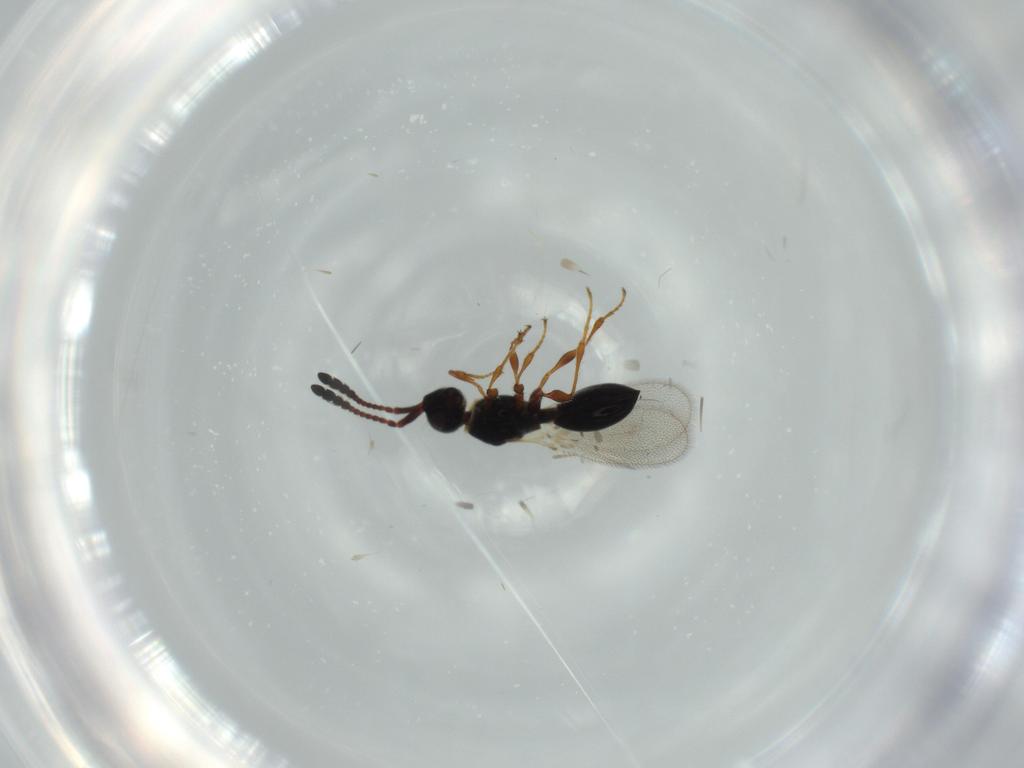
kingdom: Animalia
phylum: Arthropoda
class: Insecta
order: Hymenoptera
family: Diapriidae
